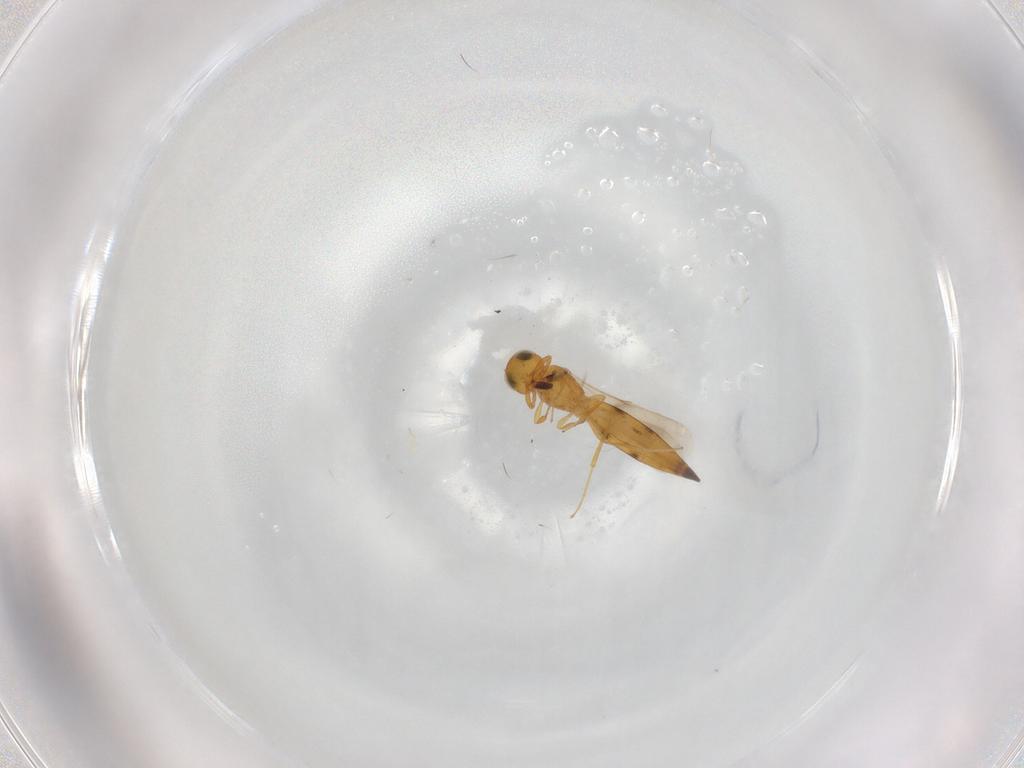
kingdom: Animalia
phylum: Arthropoda
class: Insecta
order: Hymenoptera
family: Scelionidae
